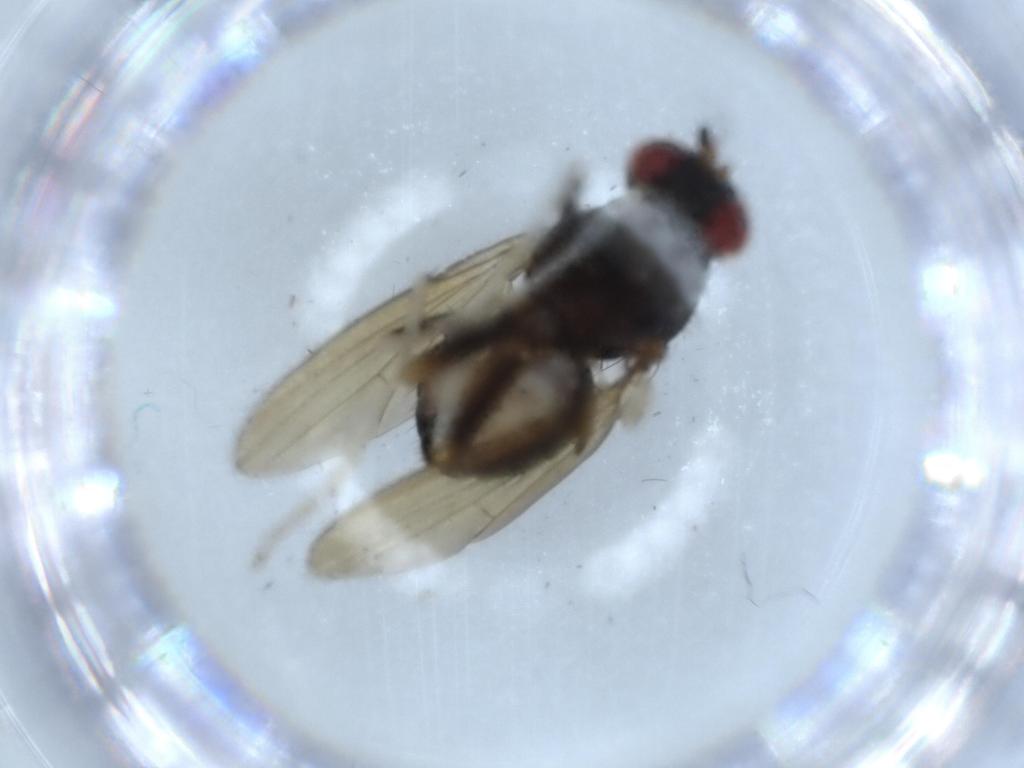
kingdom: Animalia
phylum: Arthropoda
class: Insecta
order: Diptera
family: Lauxaniidae
